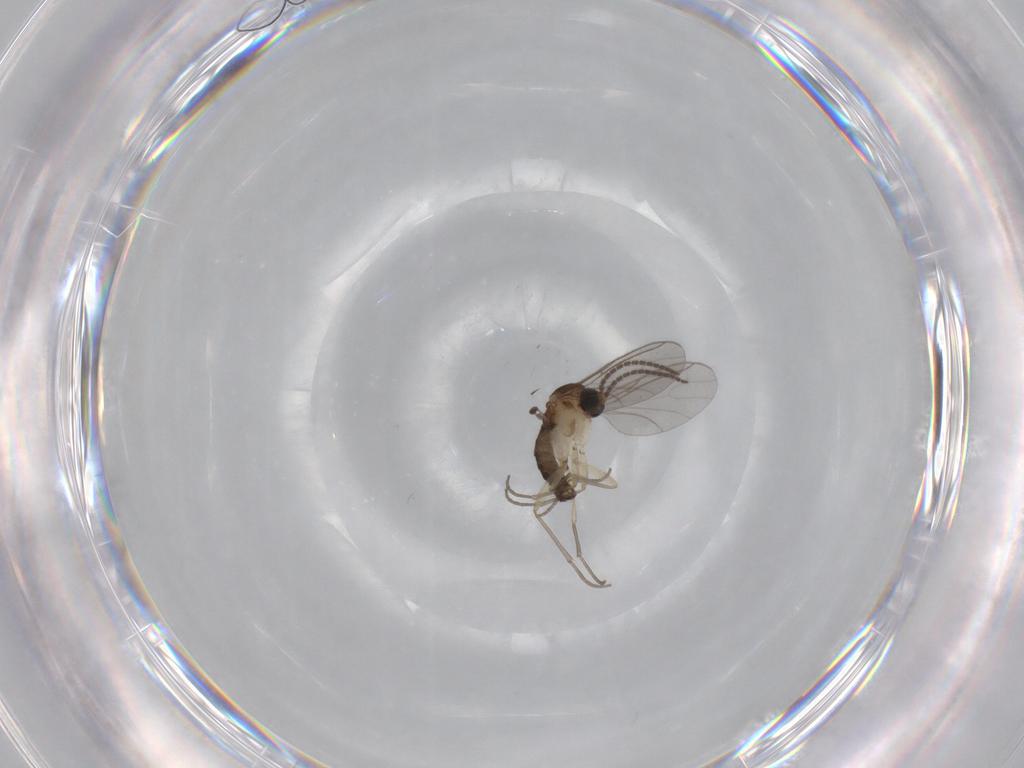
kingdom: Animalia
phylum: Arthropoda
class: Insecta
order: Diptera
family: Sciaridae
